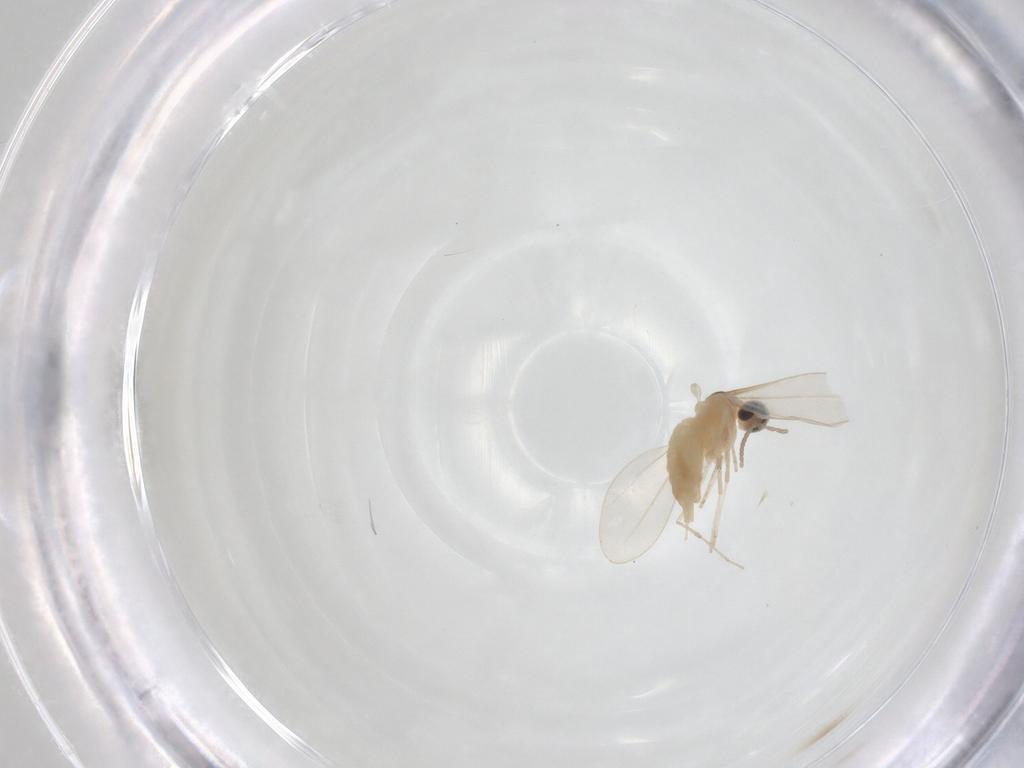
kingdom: Animalia
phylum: Arthropoda
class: Insecta
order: Diptera
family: Cecidomyiidae
